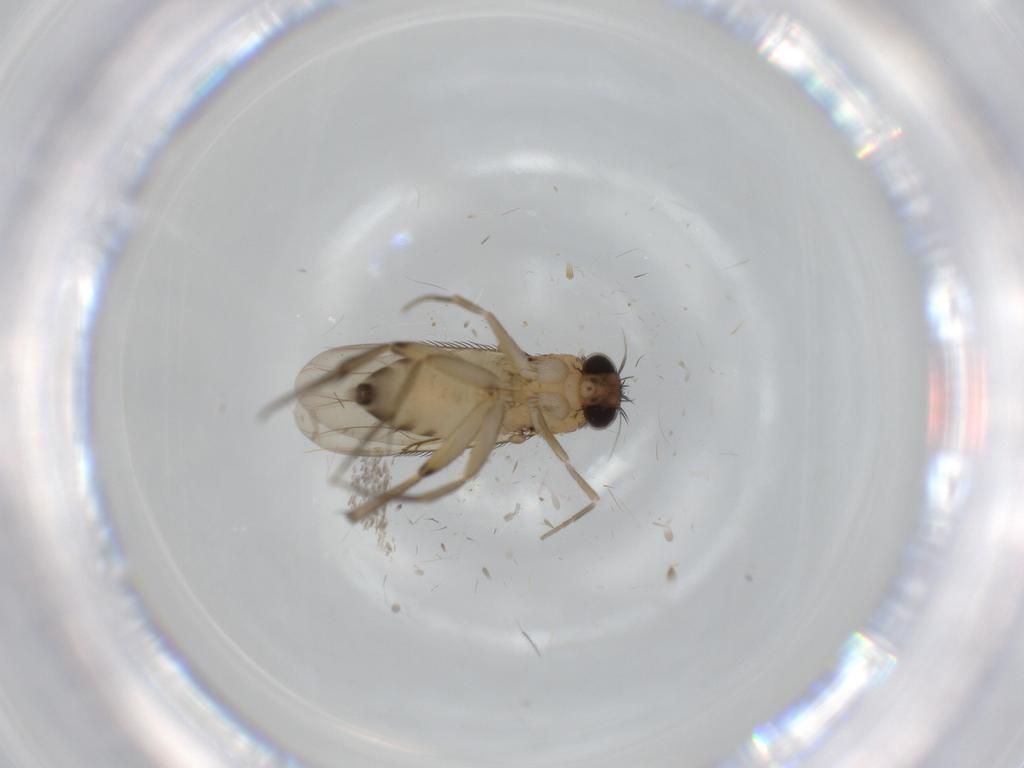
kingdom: Animalia
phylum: Arthropoda
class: Insecta
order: Diptera
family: Phoridae
